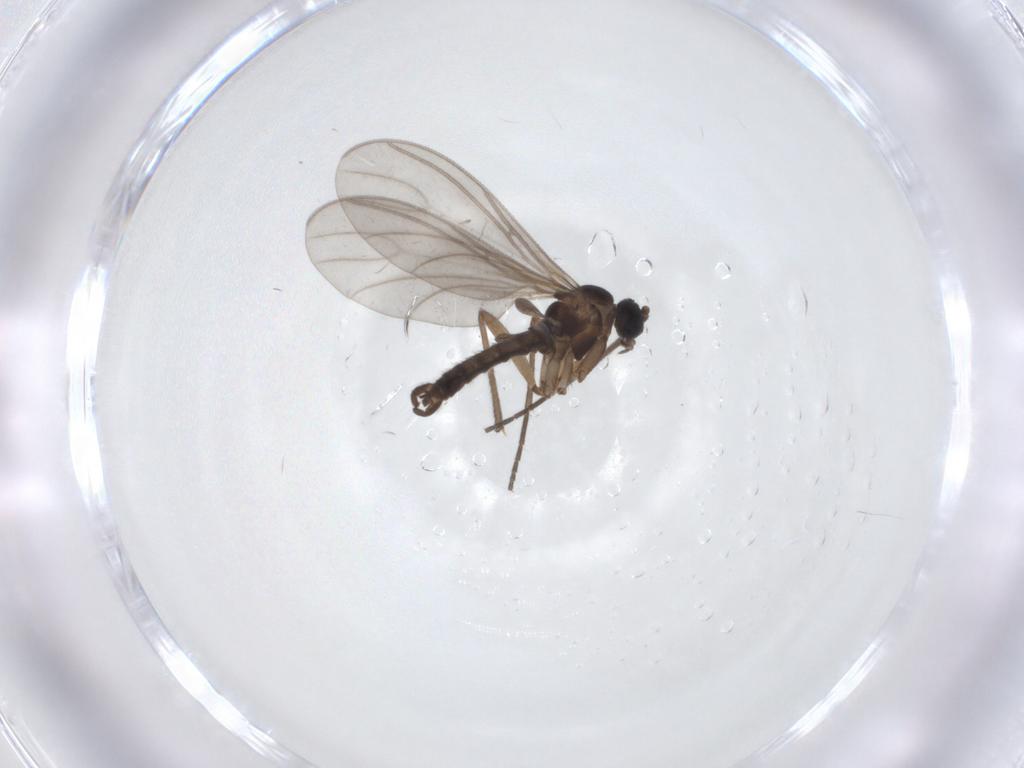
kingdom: Animalia
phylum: Arthropoda
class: Insecta
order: Diptera
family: Sciaridae
